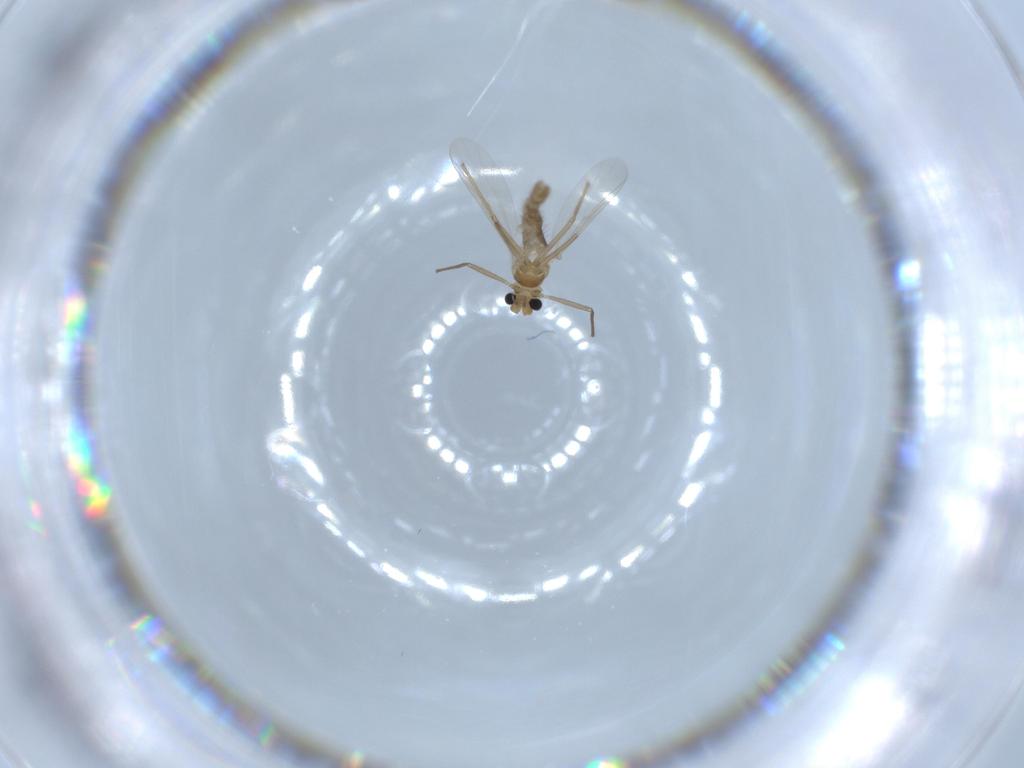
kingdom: Animalia
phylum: Arthropoda
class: Insecta
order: Diptera
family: Chironomidae
